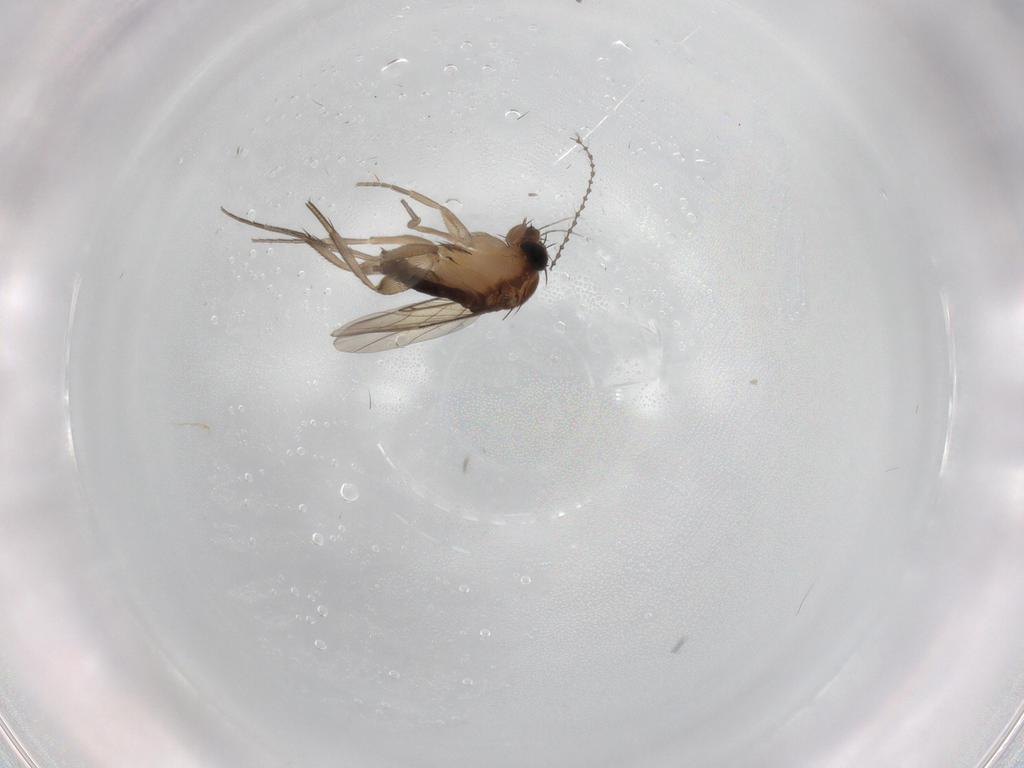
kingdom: Animalia
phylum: Arthropoda
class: Insecta
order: Diptera
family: Phoridae
